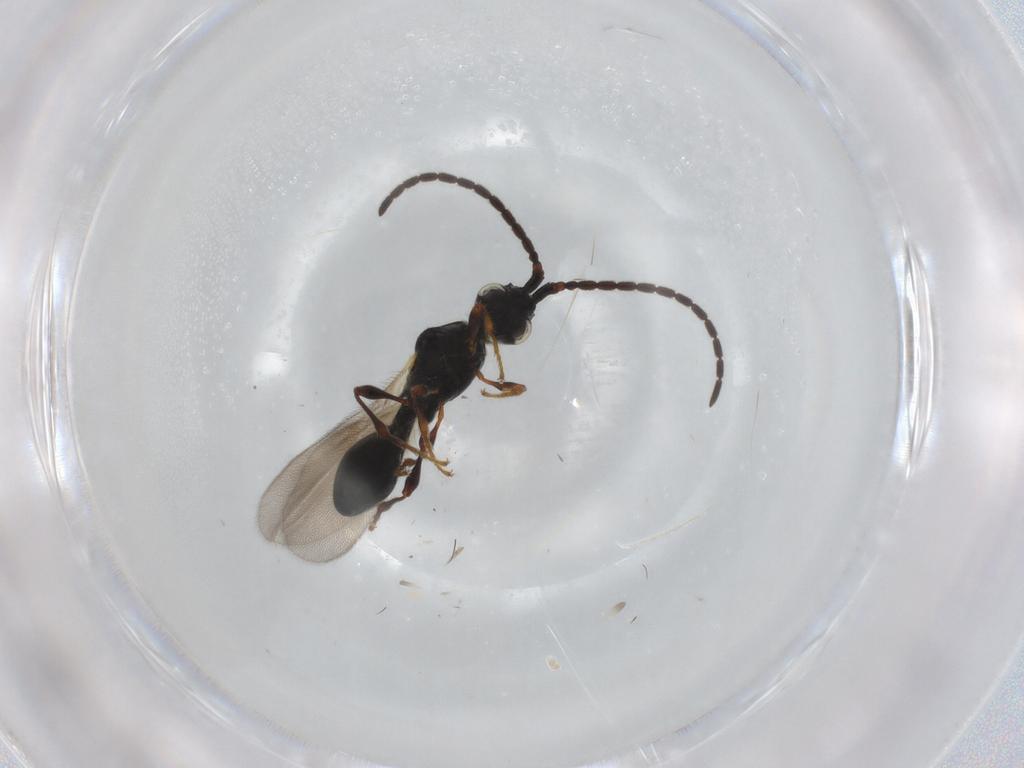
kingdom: Animalia
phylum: Arthropoda
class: Insecta
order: Hymenoptera
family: Diapriidae
